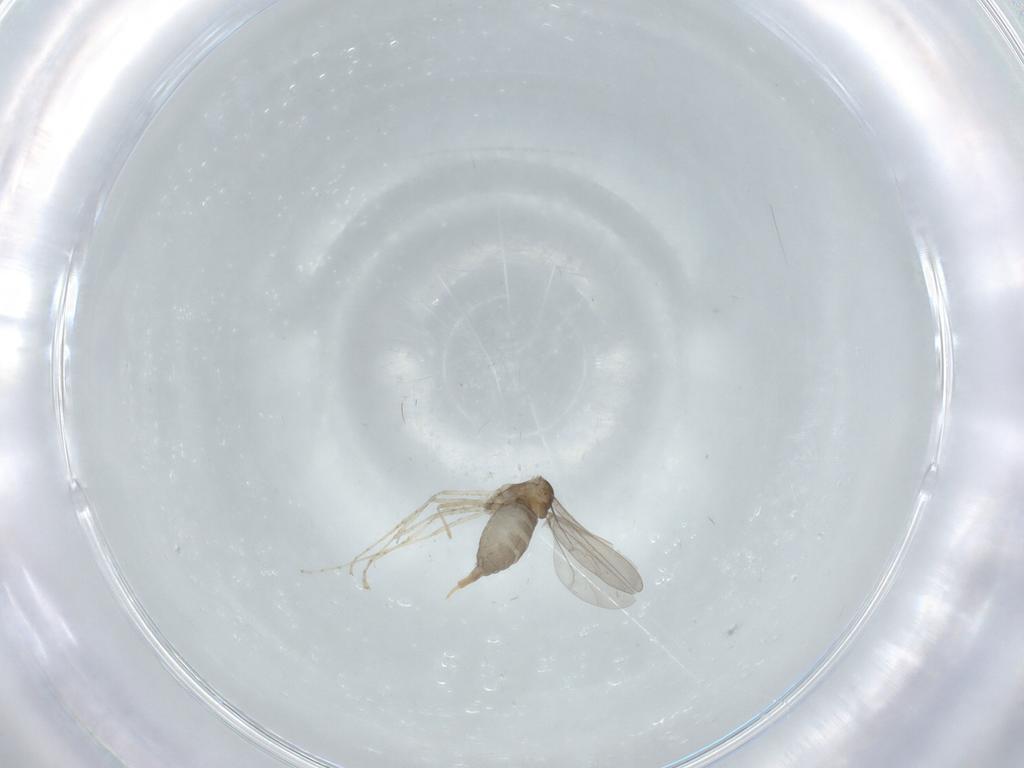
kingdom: Animalia
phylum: Arthropoda
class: Insecta
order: Diptera
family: Cecidomyiidae
